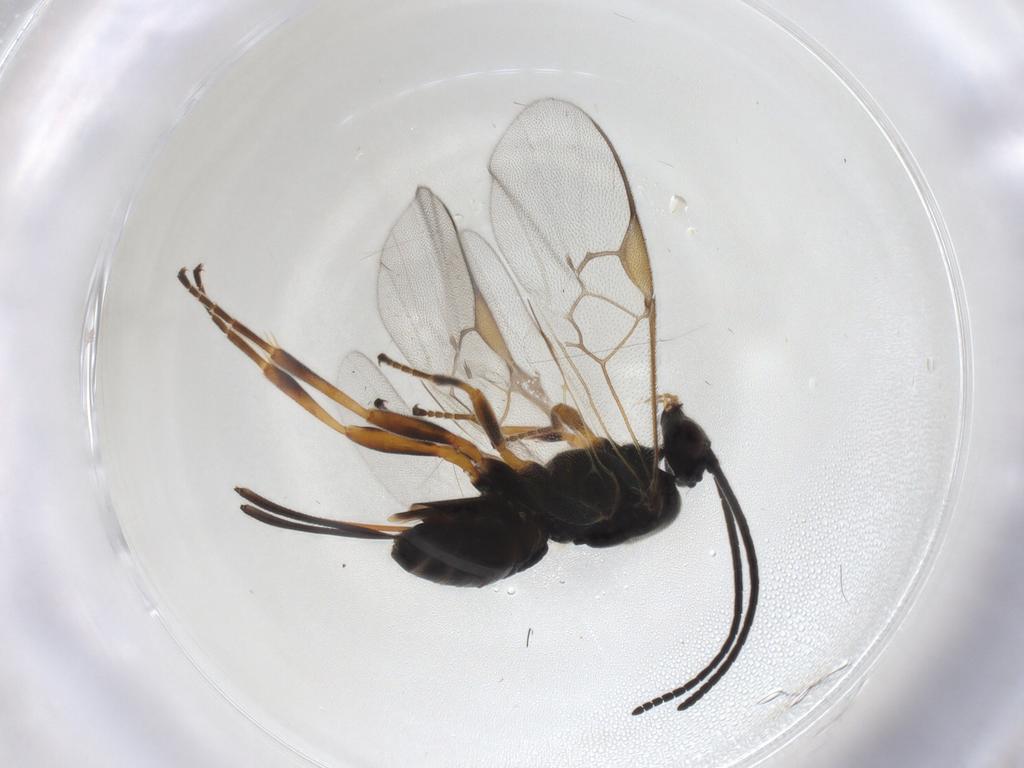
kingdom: Animalia
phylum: Arthropoda
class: Insecta
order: Hymenoptera
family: Braconidae
